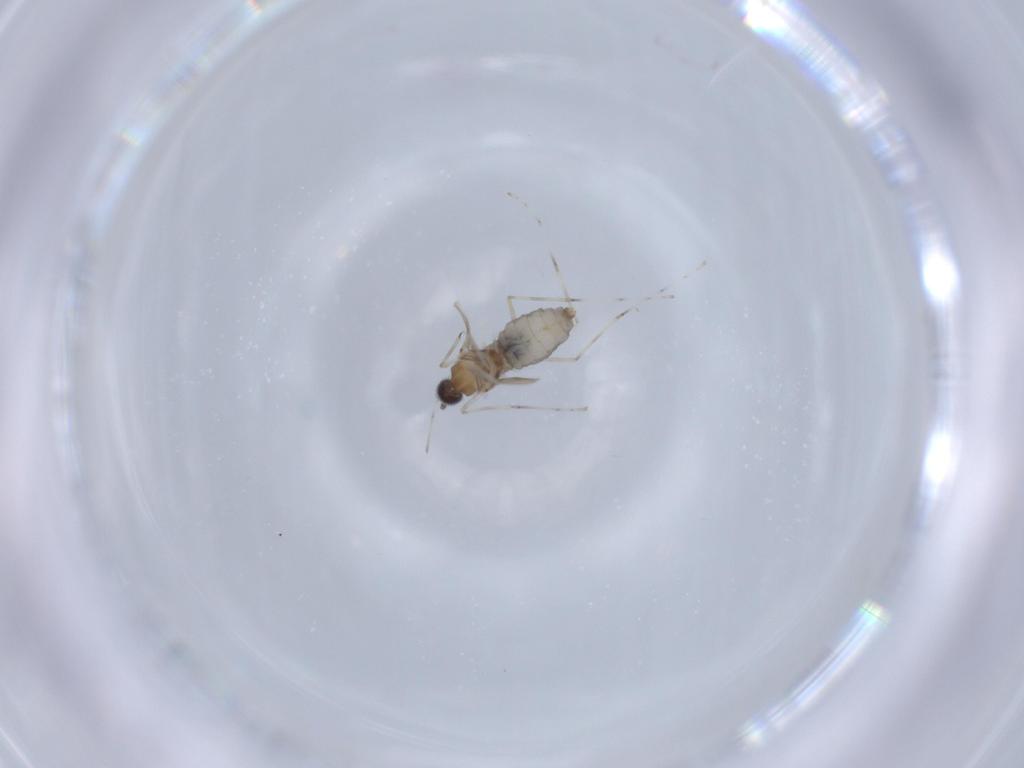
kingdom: Animalia
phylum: Arthropoda
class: Insecta
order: Diptera
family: Cecidomyiidae
